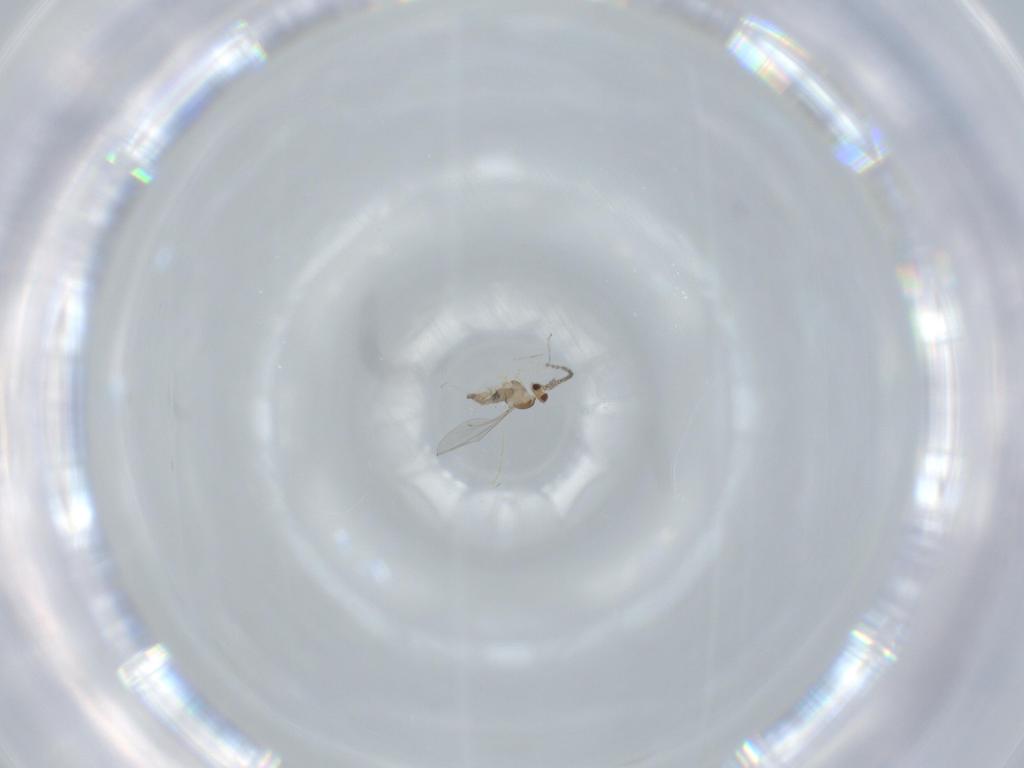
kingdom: Animalia
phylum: Arthropoda
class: Insecta
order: Diptera
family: Cecidomyiidae
